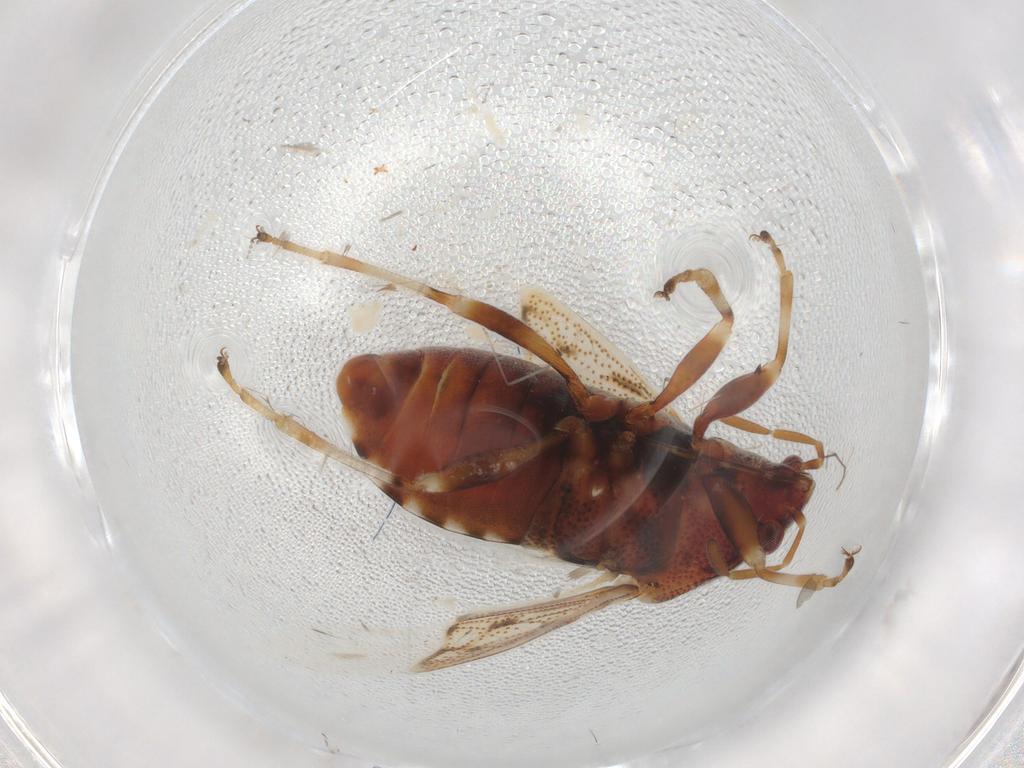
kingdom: Animalia
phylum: Arthropoda
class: Insecta
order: Hemiptera
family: Rhopalidae
